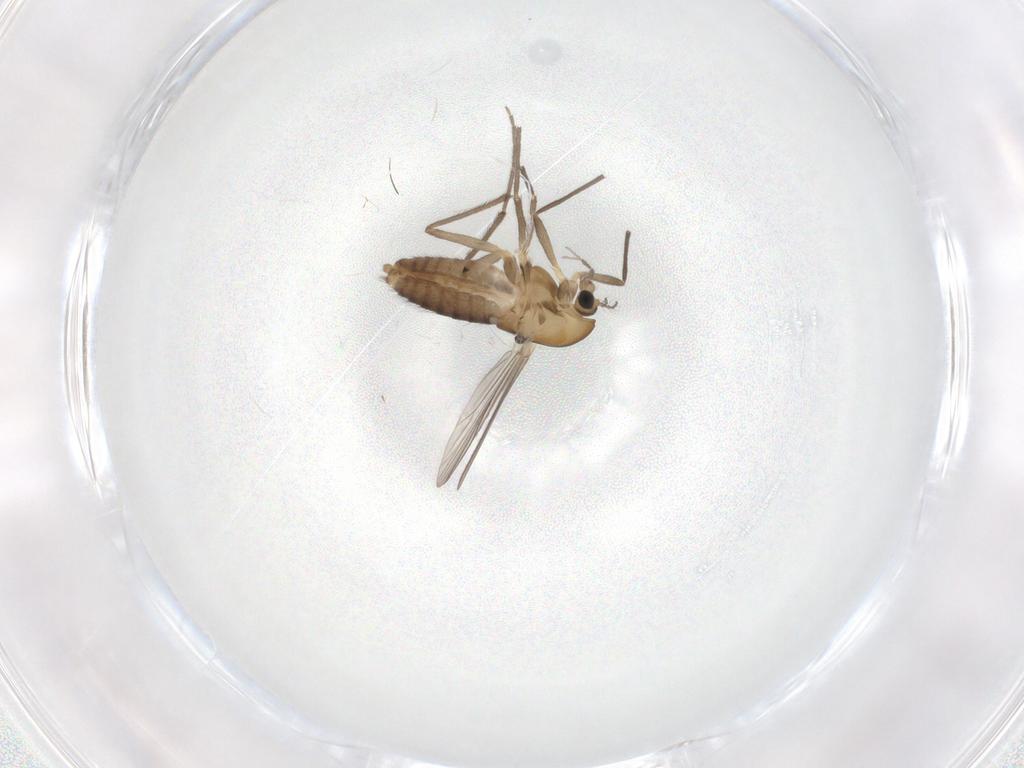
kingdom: Animalia
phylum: Arthropoda
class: Insecta
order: Diptera
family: Chironomidae
